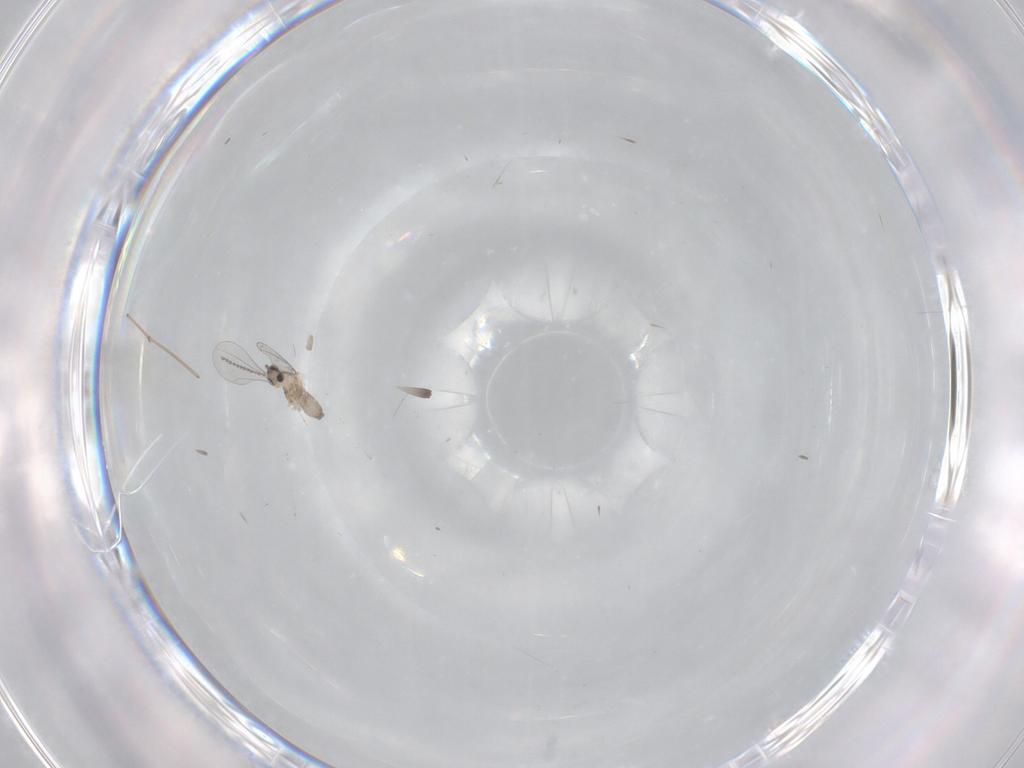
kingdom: Animalia
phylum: Arthropoda
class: Insecta
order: Diptera
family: Cecidomyiidae
